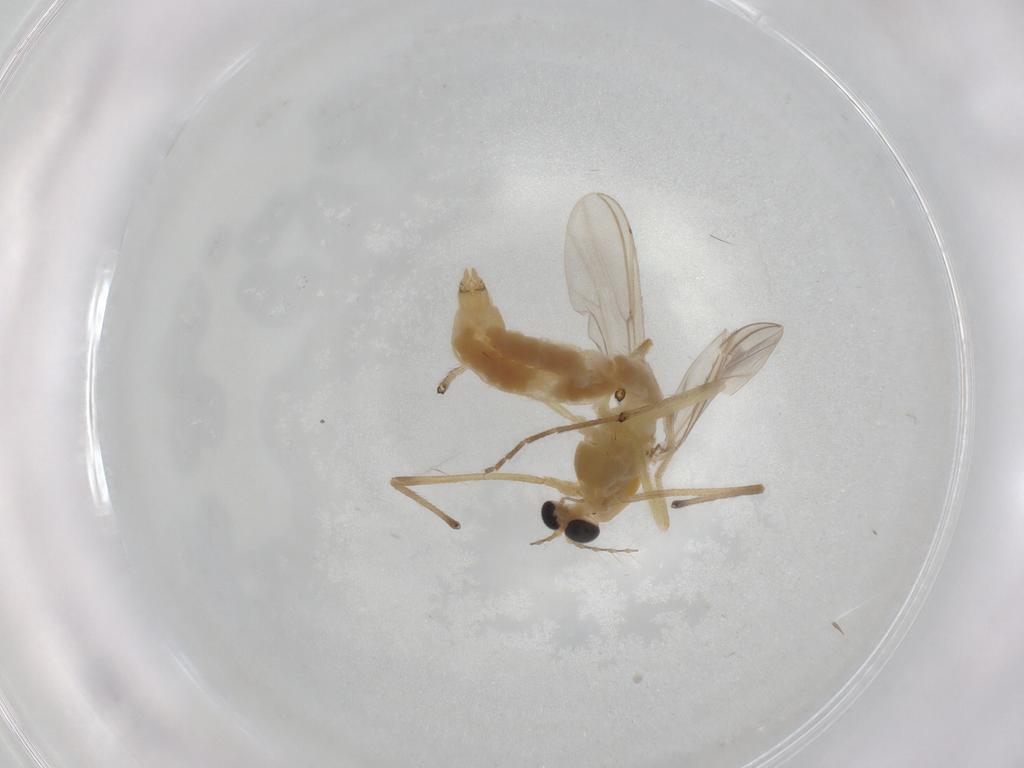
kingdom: Animalia
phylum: Arthropoda
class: Insecta
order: Diptera
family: Chironomidae
